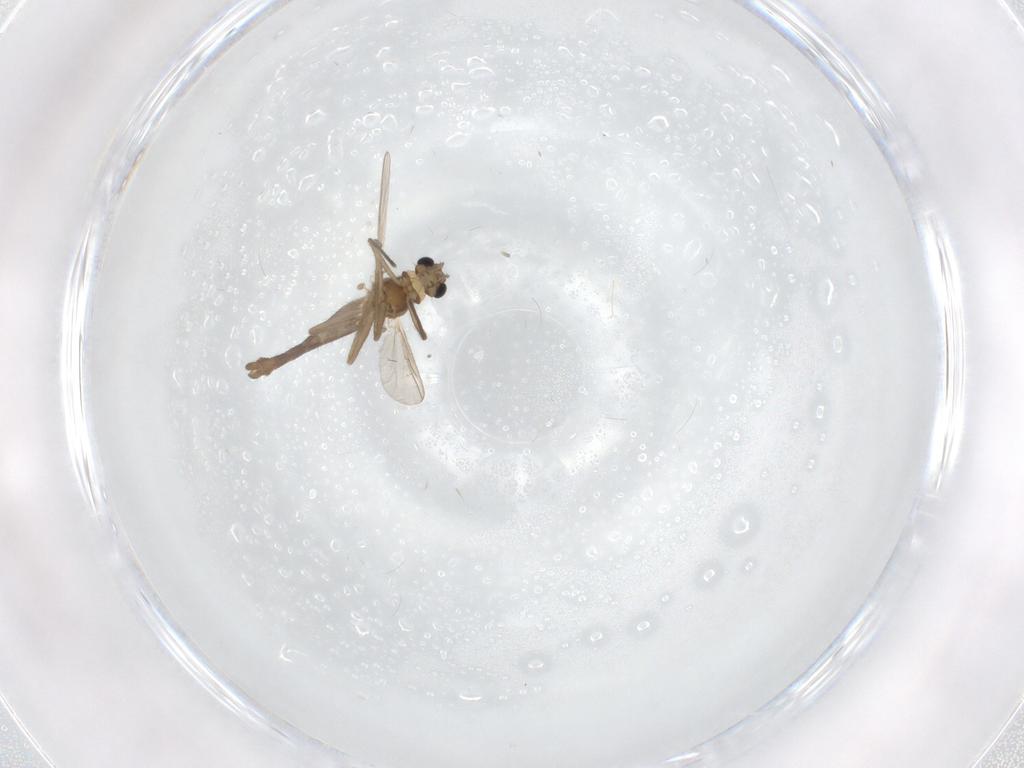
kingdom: Animalia
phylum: Arthropoda
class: Insecta
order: Diptera
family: Chironomidae
